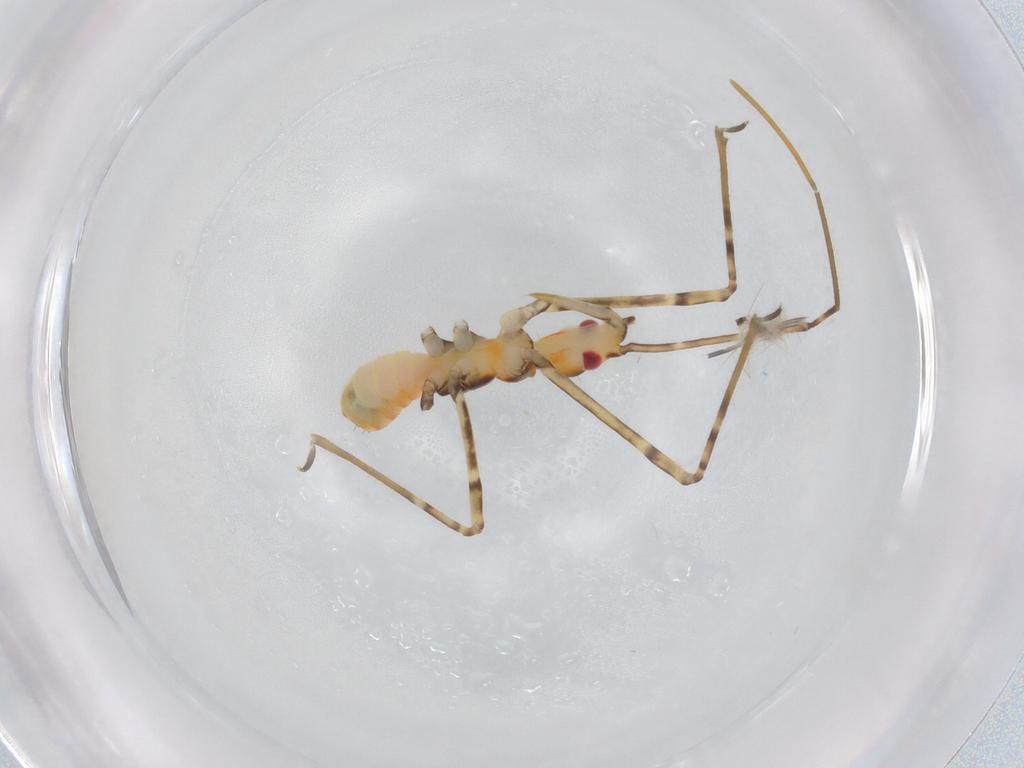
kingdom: Animalia
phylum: Arthropoda
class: Insecta
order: Hemiptera
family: Reduviidae
